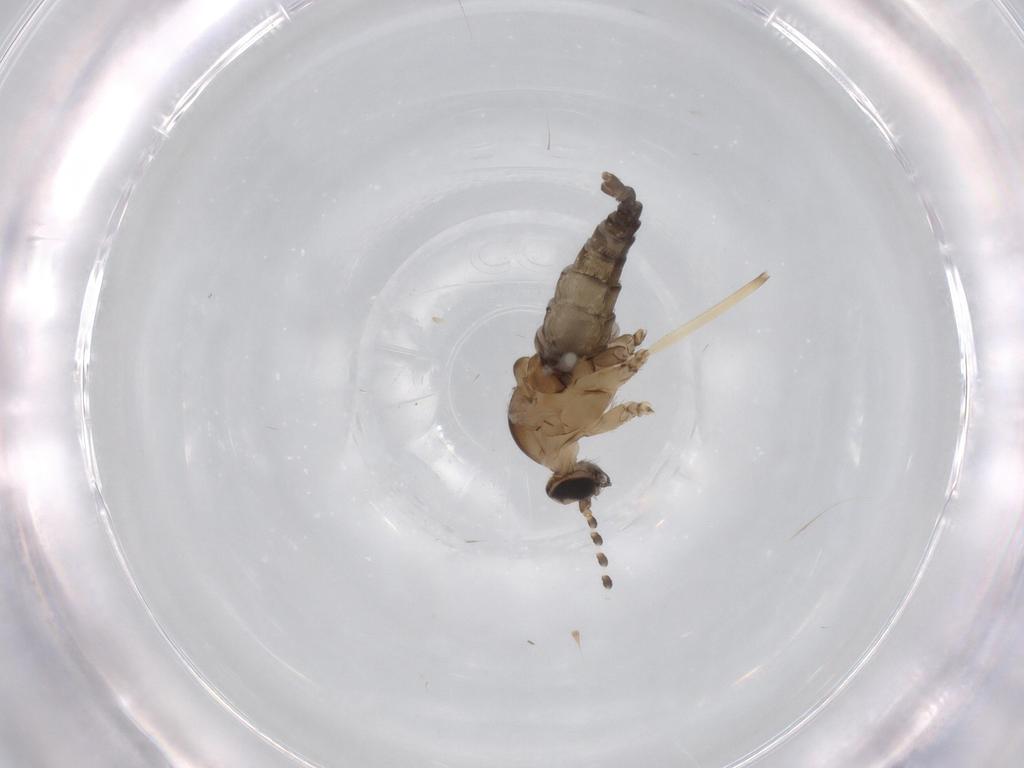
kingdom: Animalia
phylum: Arthropoda
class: Insecta
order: Diptera
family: Cecidomyiidae
